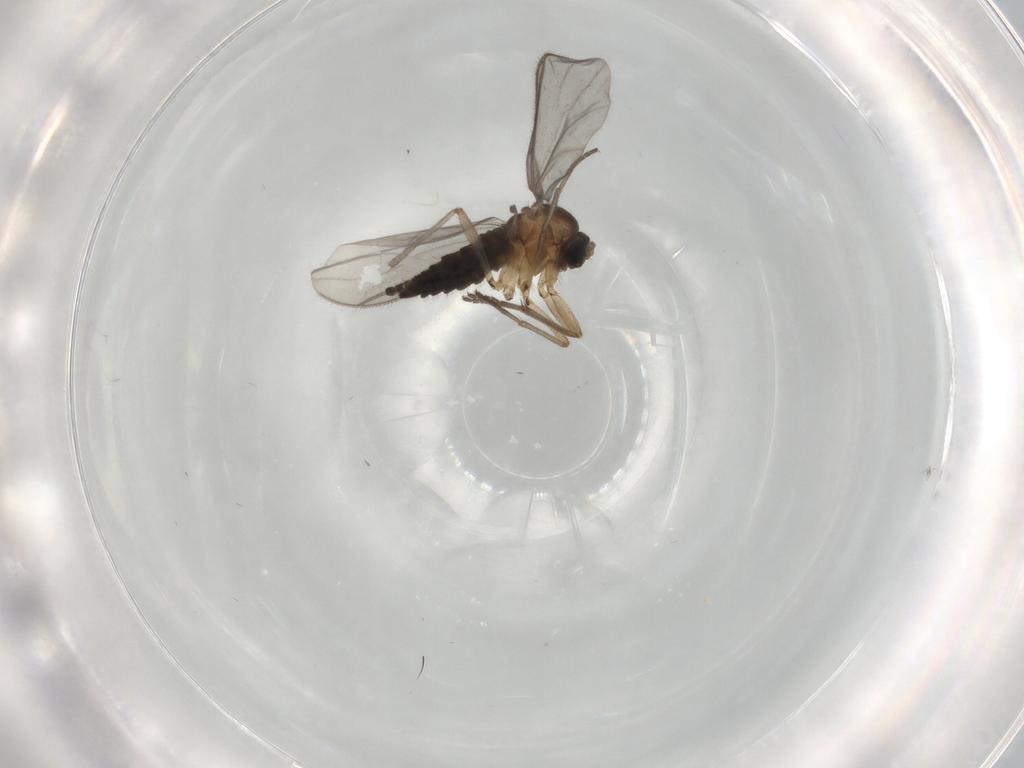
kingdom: Animalia
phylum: Arthropoda
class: Insecta
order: Diptera
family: Sciaridae
